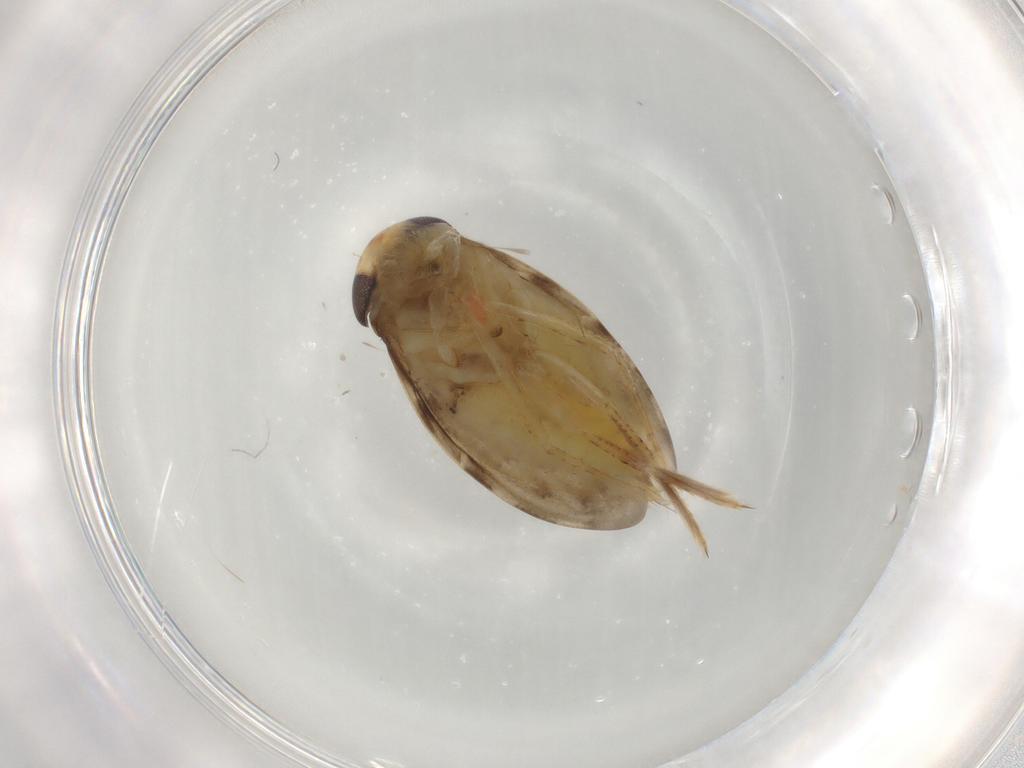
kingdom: Animalia
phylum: Arthropoda
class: Insecta
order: Hemiptera
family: Corixidae
